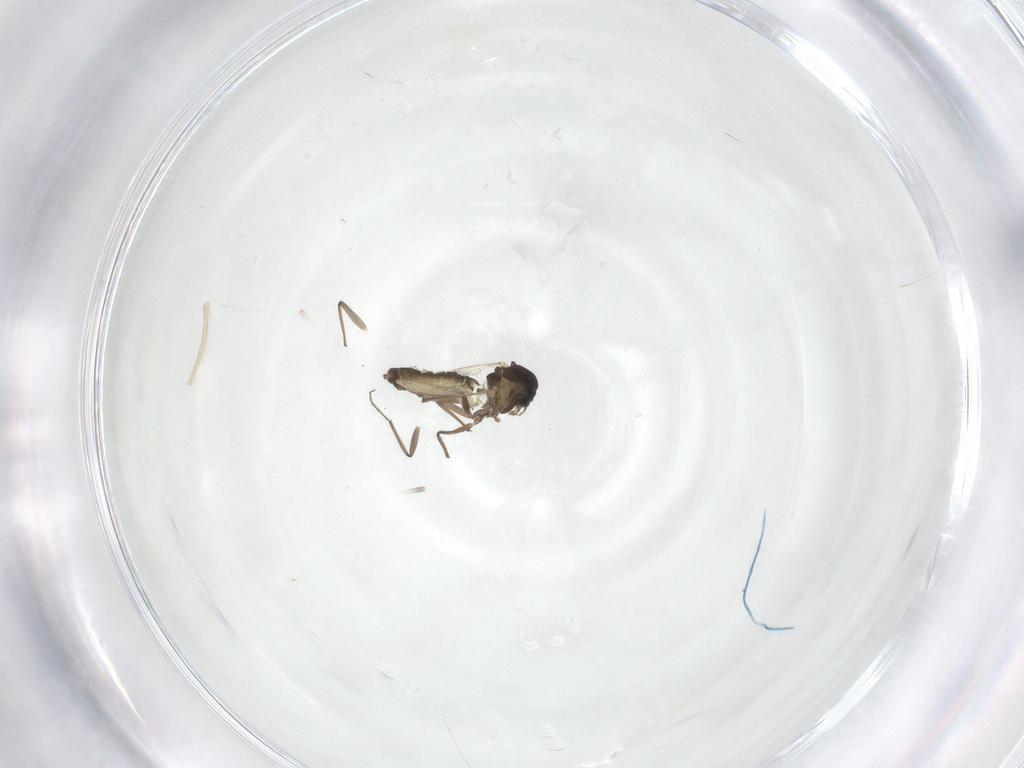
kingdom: Animalia
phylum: Arthropoda
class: Insecta
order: Diptera
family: Chironomidae
